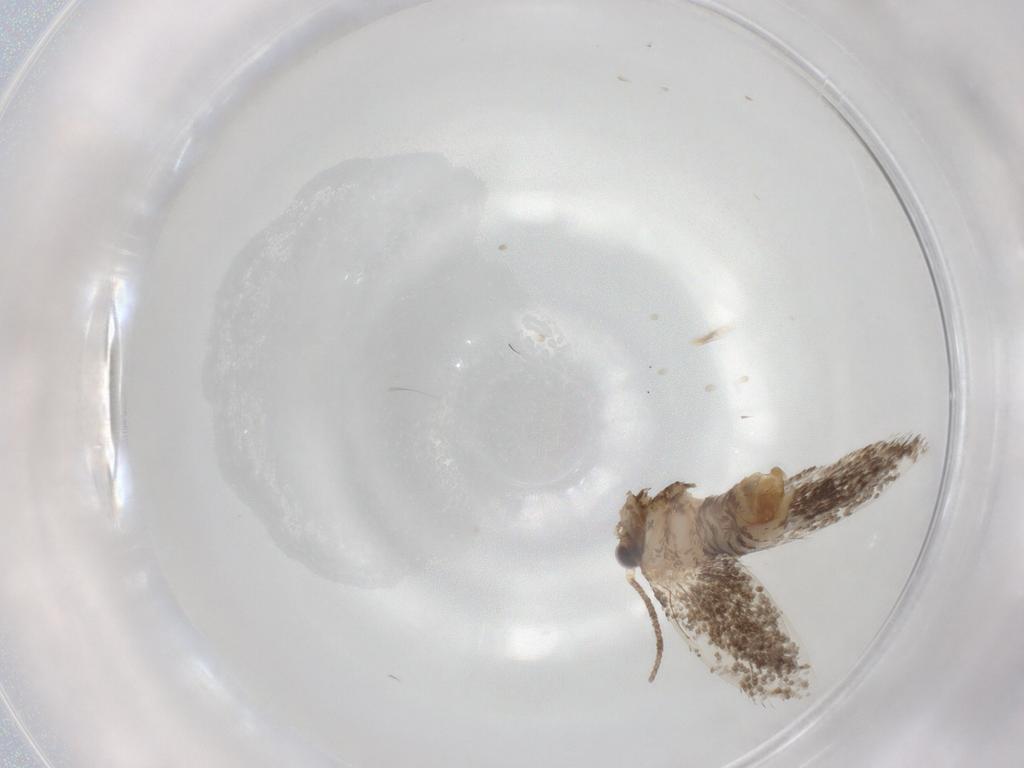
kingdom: Animalia
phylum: Arthropoda
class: Insecta
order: Lepidoptera
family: Tineidae
